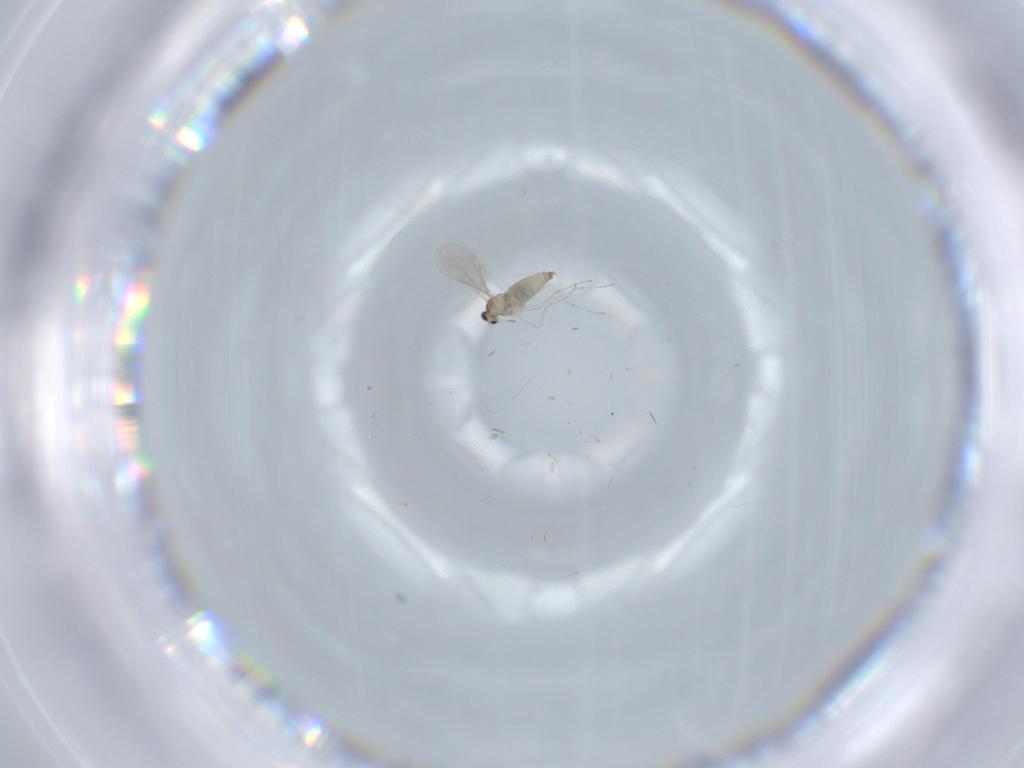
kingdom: Animalia
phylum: Arthropoda
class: Insecta
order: Diptera
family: Cecidomyiidae
